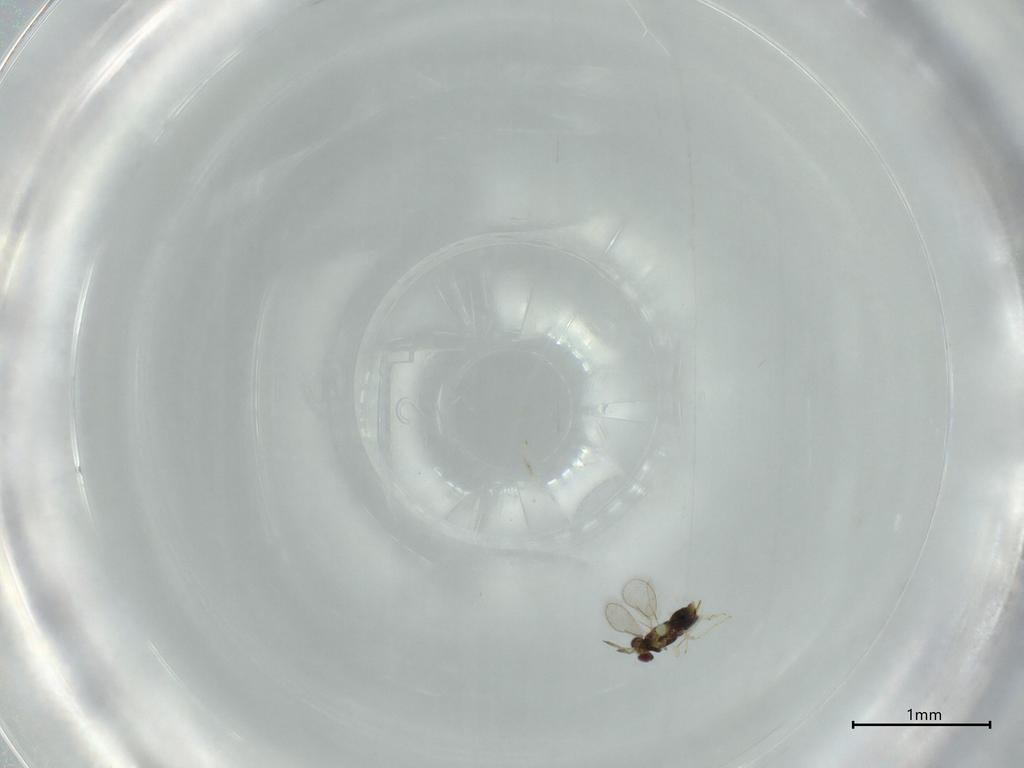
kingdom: Animalia
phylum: Arthropoda
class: Insecta
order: Hymenoptera
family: Aphelinidae
